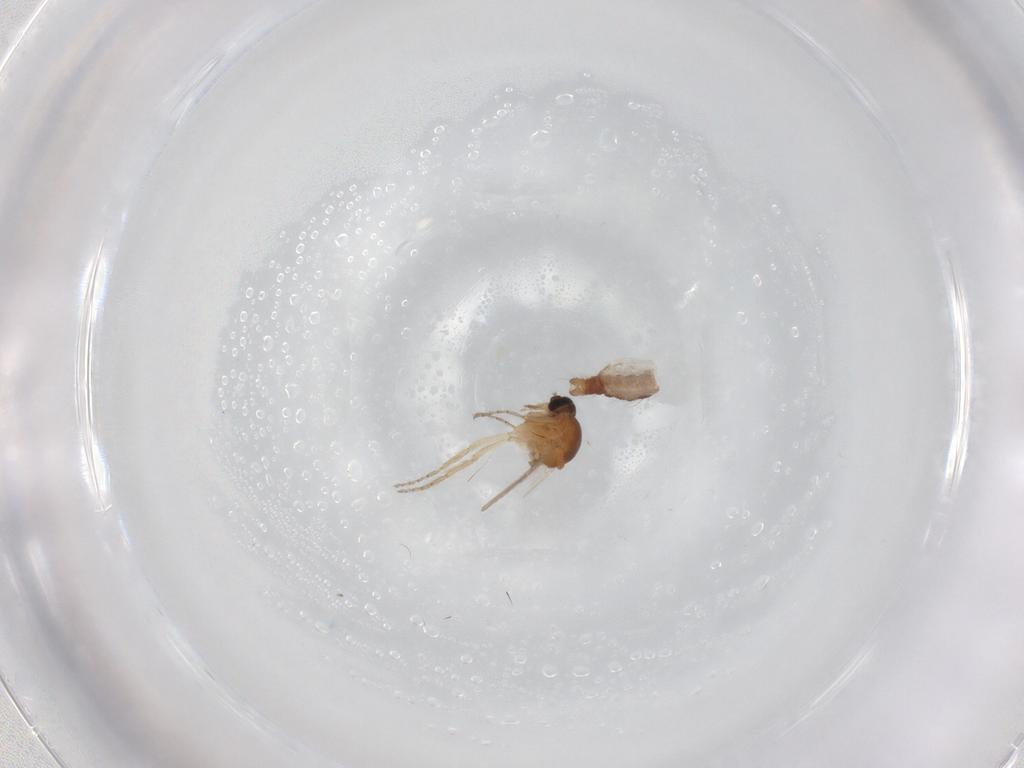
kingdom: Animalia
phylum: Arthropoda
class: Insecta
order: Diptera
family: Ceratopogonidae
